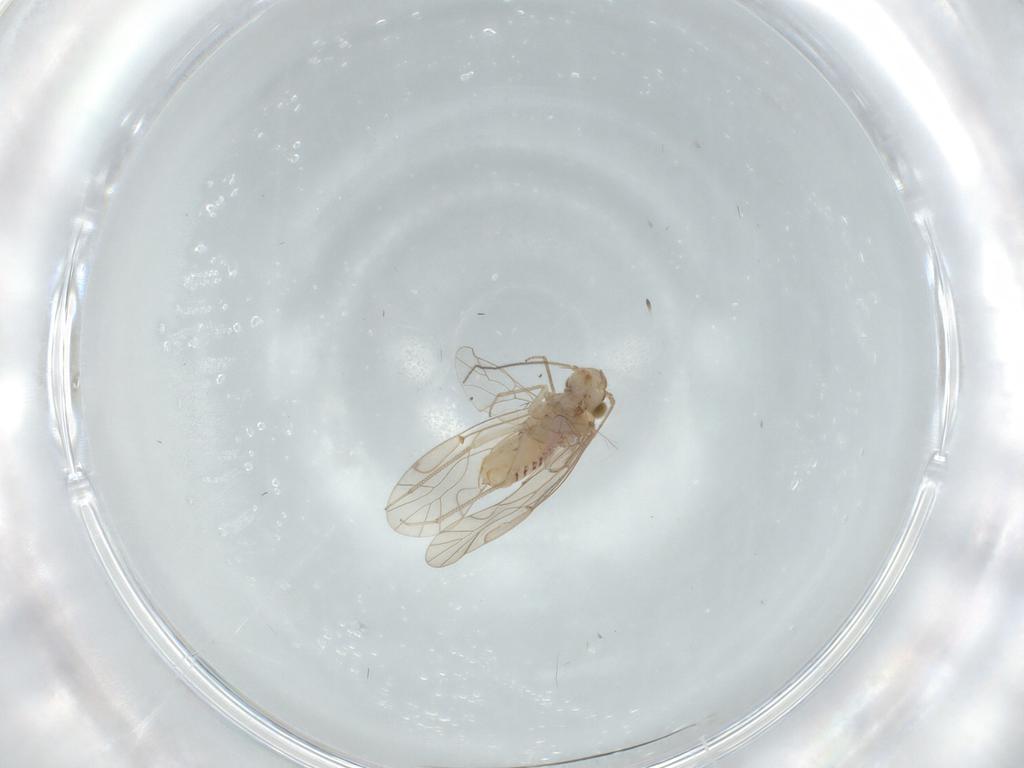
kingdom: Animalia
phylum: Arthropoda
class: Insecta
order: Psocodea
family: Lachesillidae
